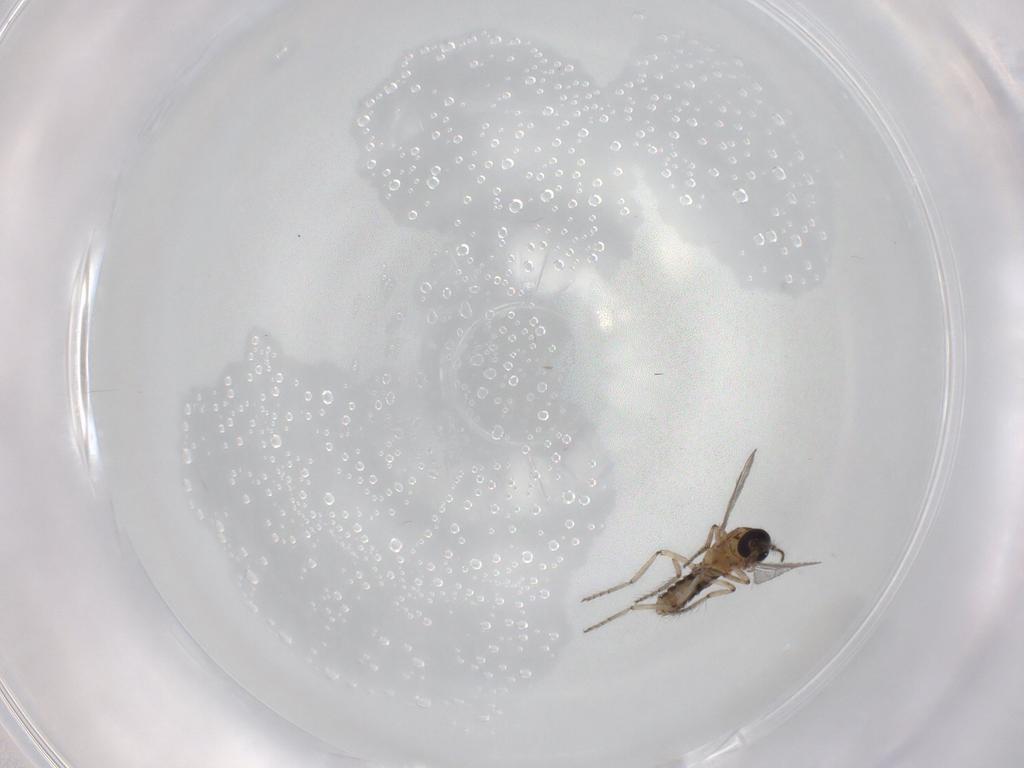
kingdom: Animalia
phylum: Arthropoda
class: Insecta
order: Diptera
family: Ceratopogonidae
